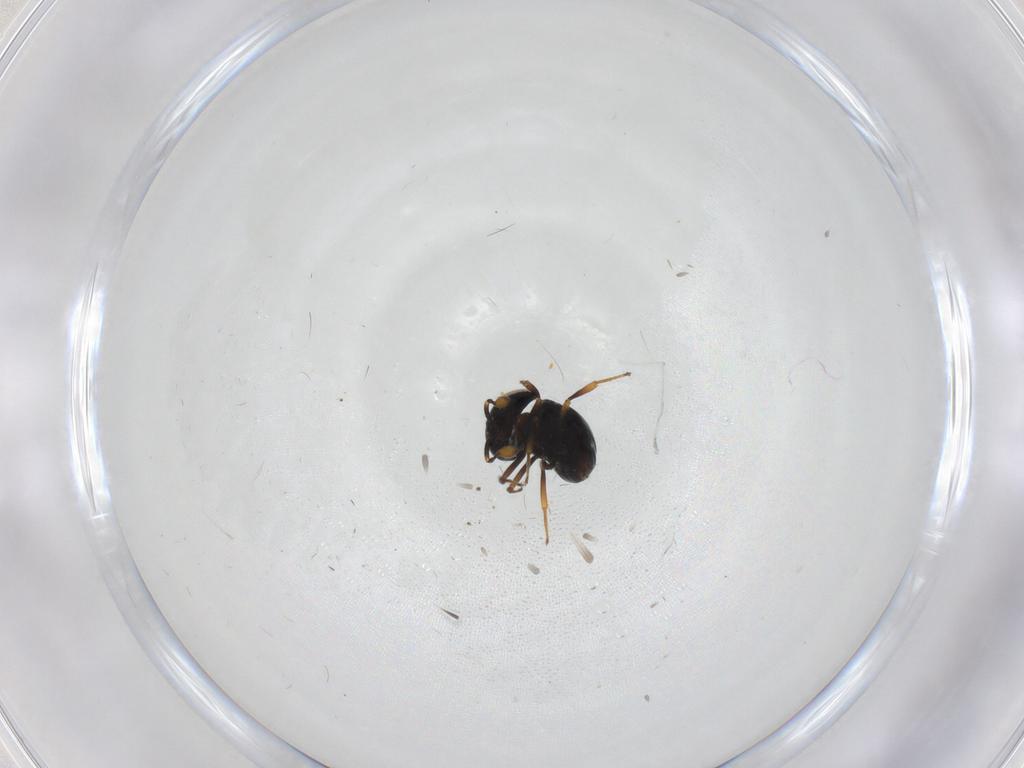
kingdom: Animalia
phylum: Arthropoda
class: Insecta
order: Hymenoptera
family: Scelionidae
